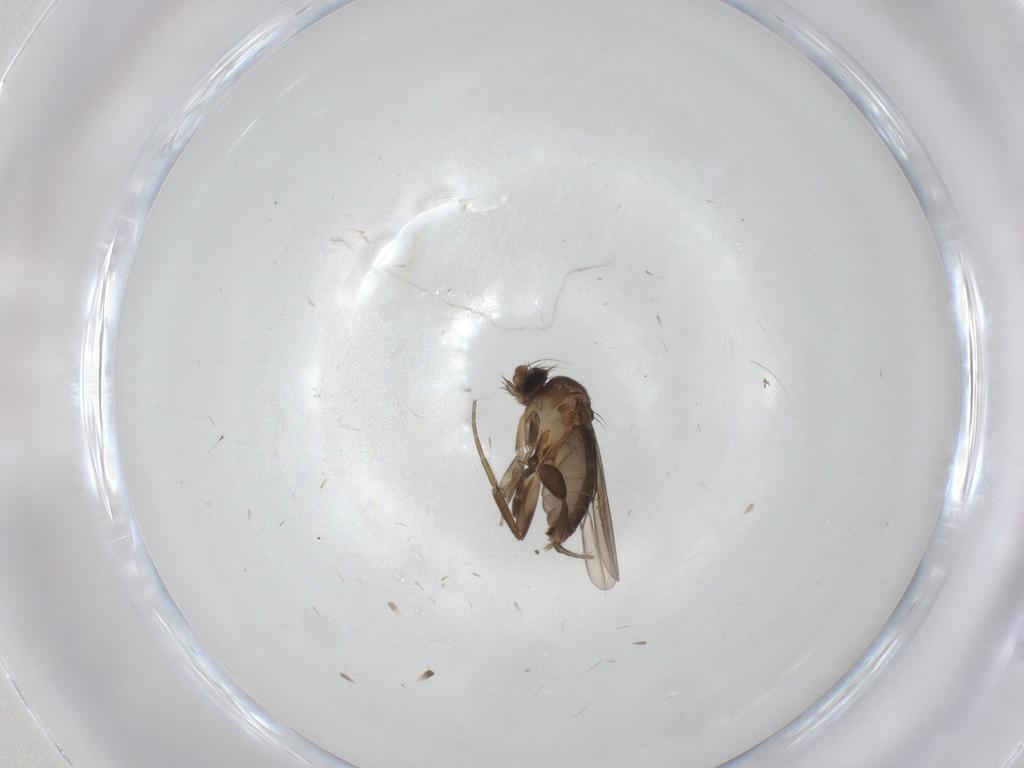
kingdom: Animalia
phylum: Arthropoda
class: Insecta
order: Diptera
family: Phoridae
